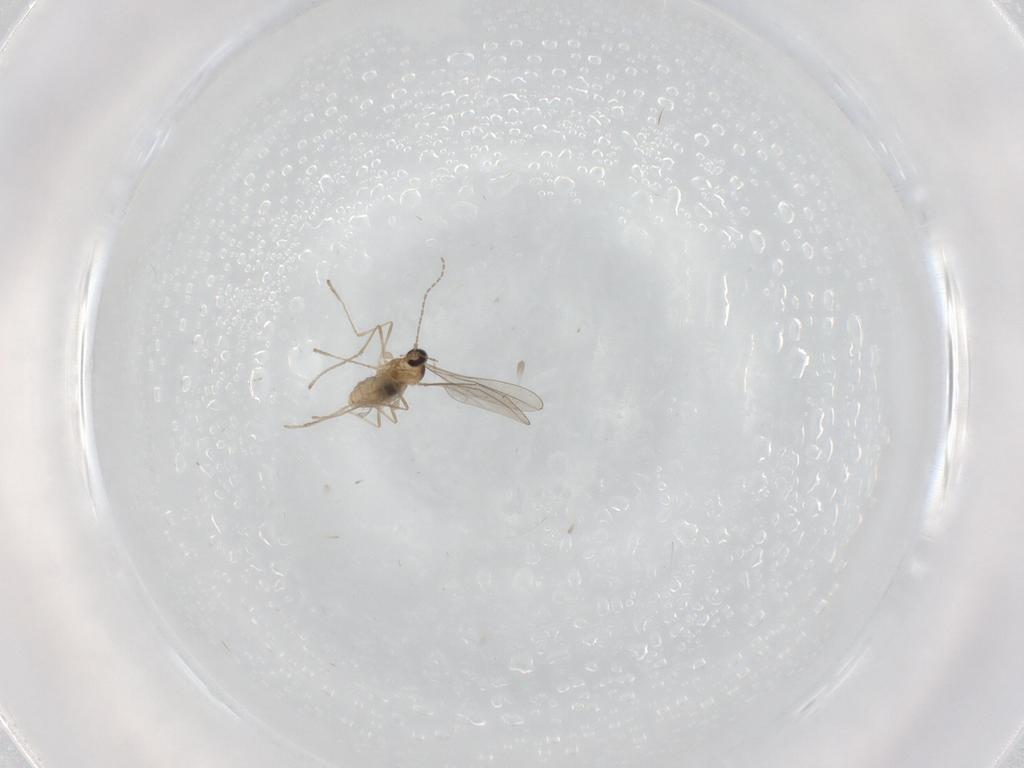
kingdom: Animalia
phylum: Arthropoda
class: Insecta
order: Diptera
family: Cecidomyiidae
